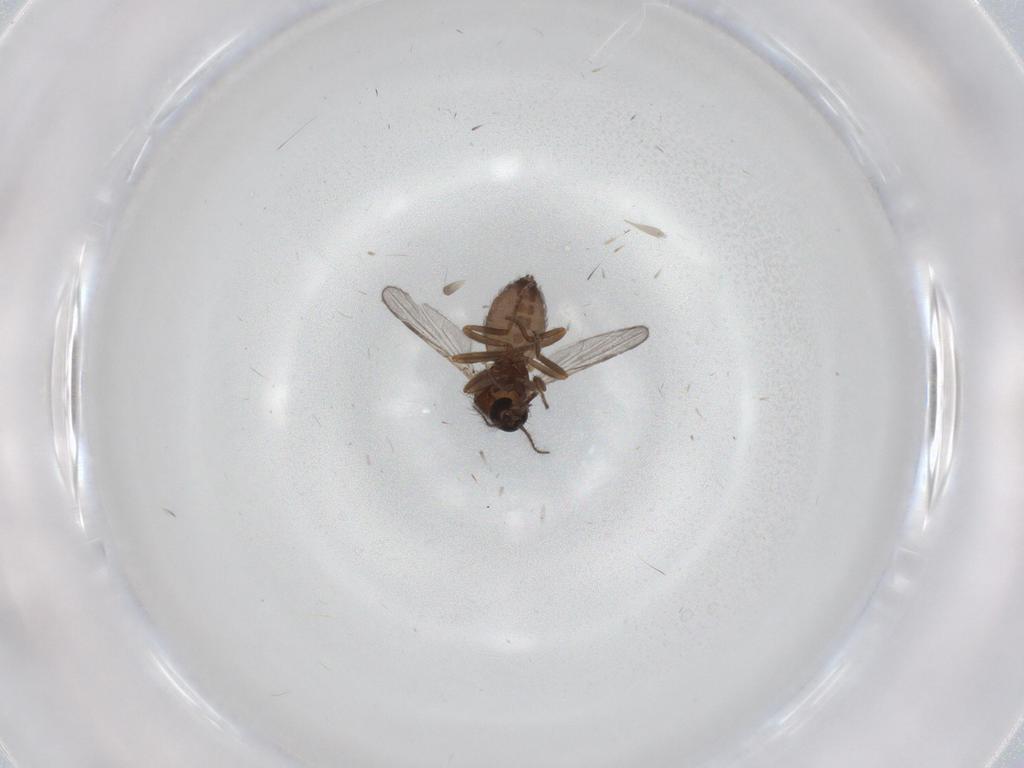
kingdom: Animalia
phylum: Arthropoda
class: Insecta
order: Diptera
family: Ceratopogonidae
